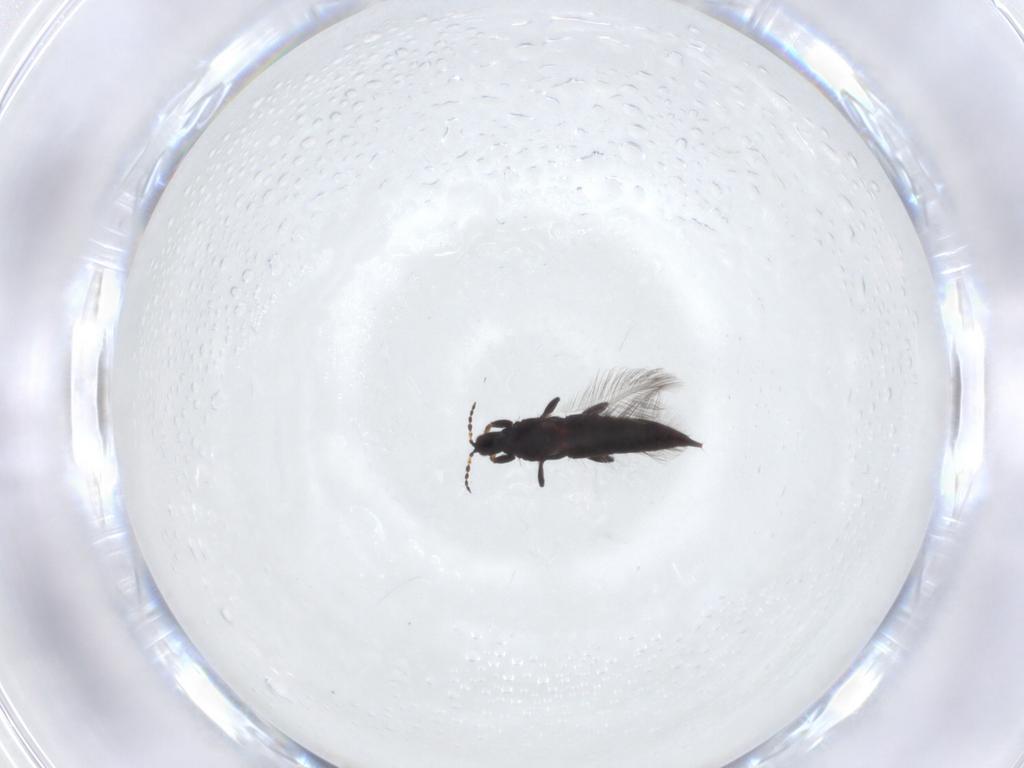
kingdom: Animalia
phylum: Arthropoda
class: Insecta
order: Thysanoptera
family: Phlaeothripidae
